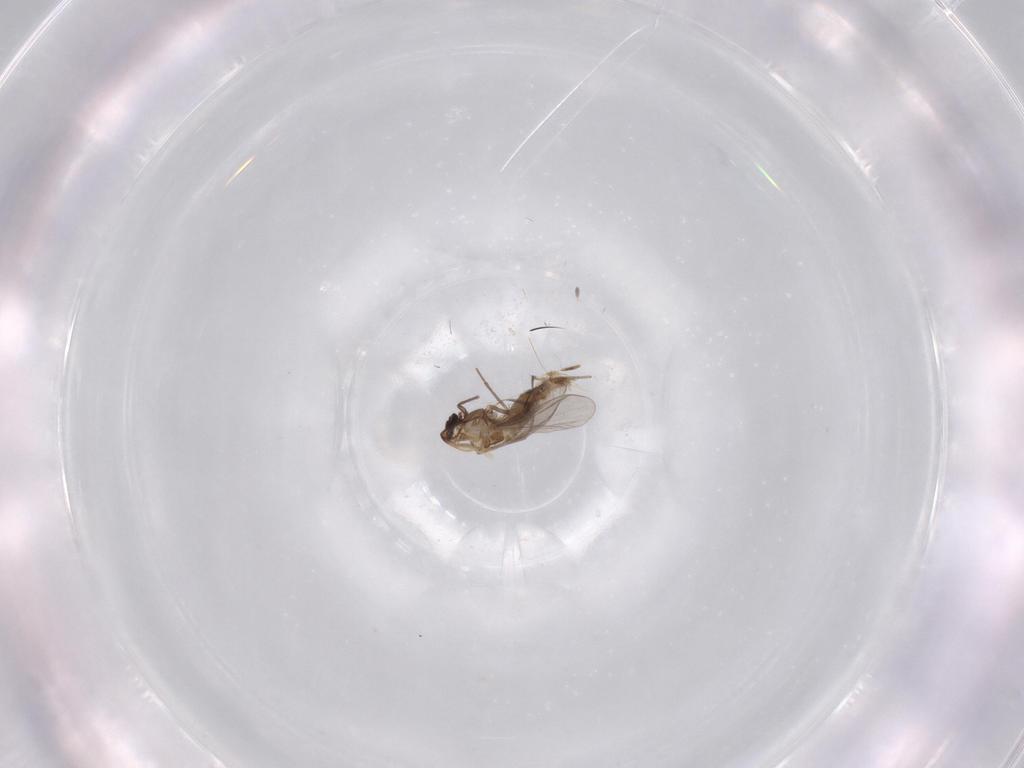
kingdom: Animalia
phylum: Arthropoda
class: Insecta
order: Diptera
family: Chironomidae
